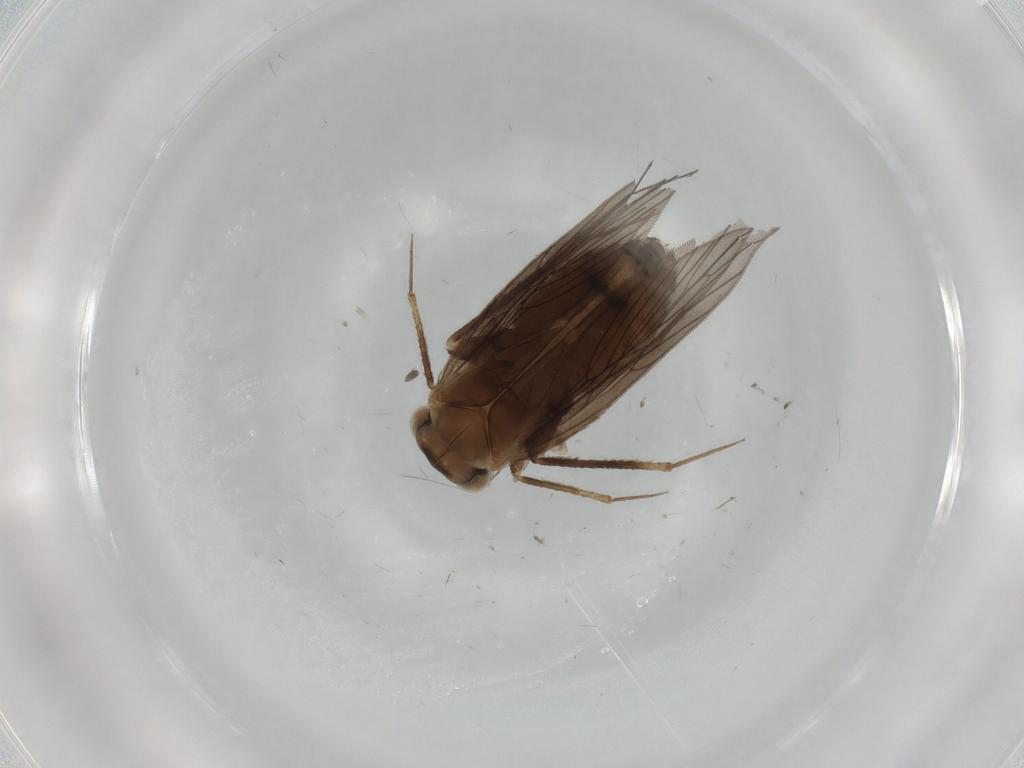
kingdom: Animalia
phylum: Arthropoda
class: Insecta
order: Psocodea
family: Lepidopsocidae
